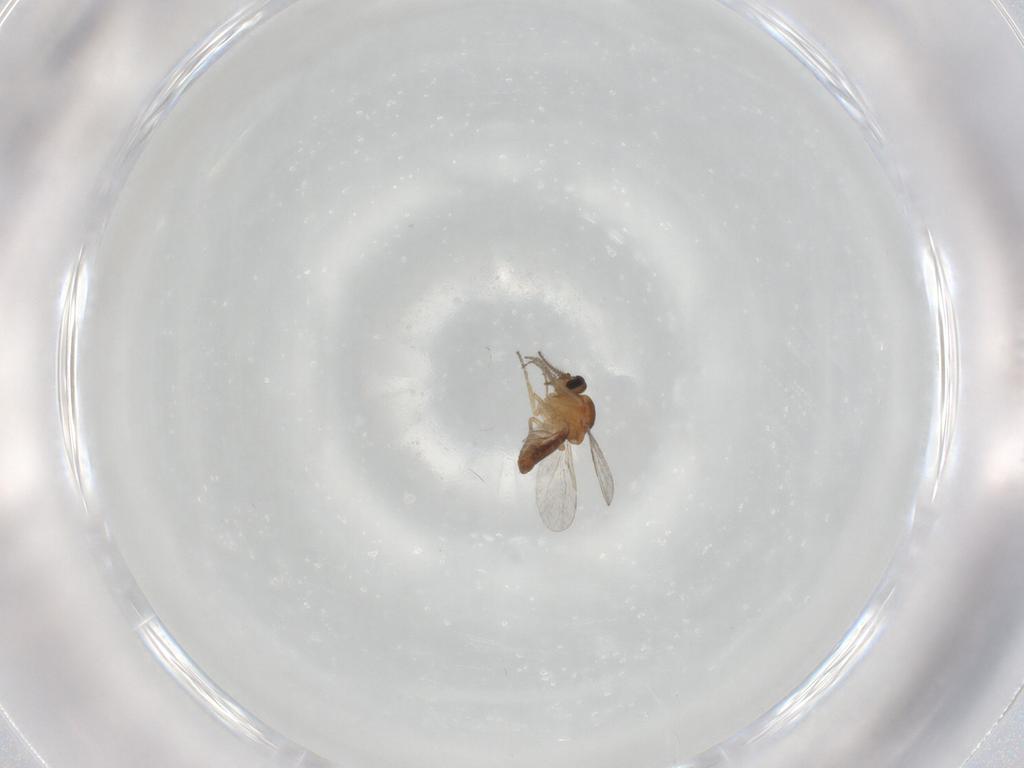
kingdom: Animalia
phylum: Arthropoda
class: Insecta
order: Diptera
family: Ceratopogonidae
